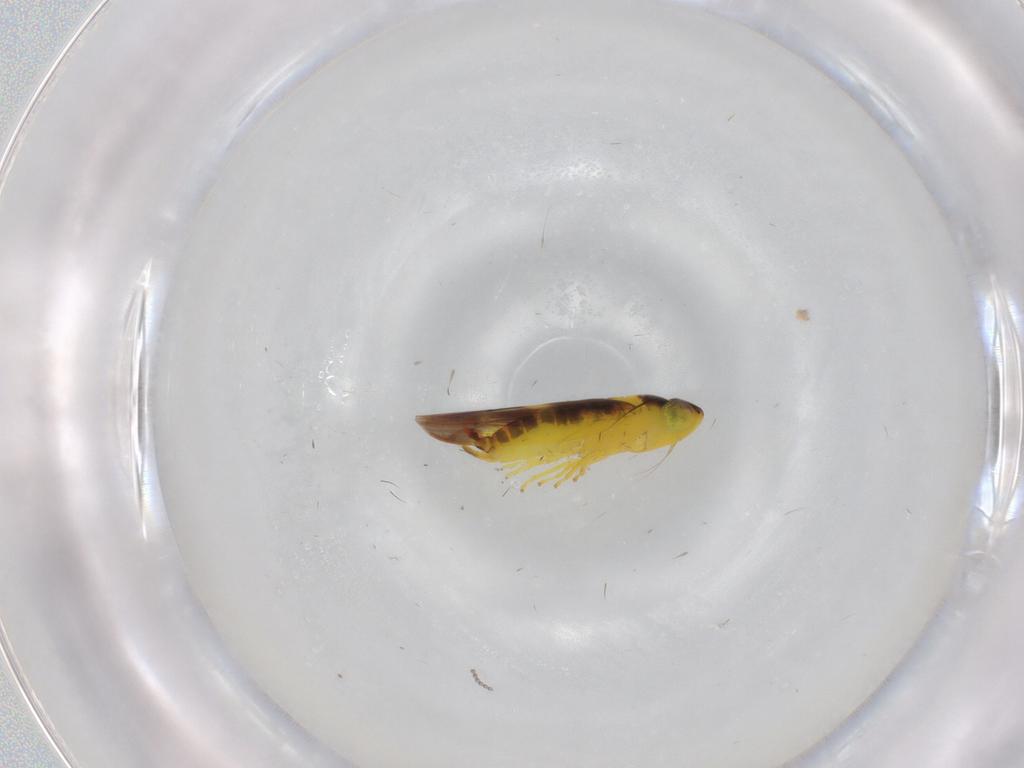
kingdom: Animalia
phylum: Arthropoda
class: Insecta
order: Hemiptera
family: Cicadellidae
